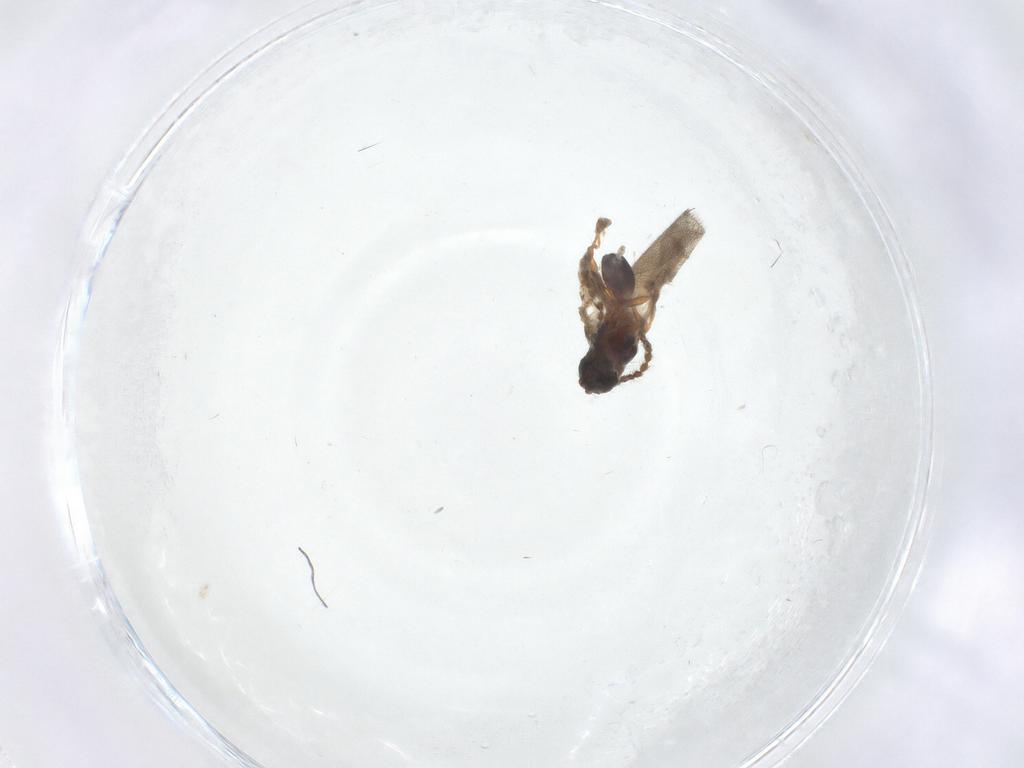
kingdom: Animalia
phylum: Arthropoda
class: Insecta
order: Hymenoptera
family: Diapriidae
